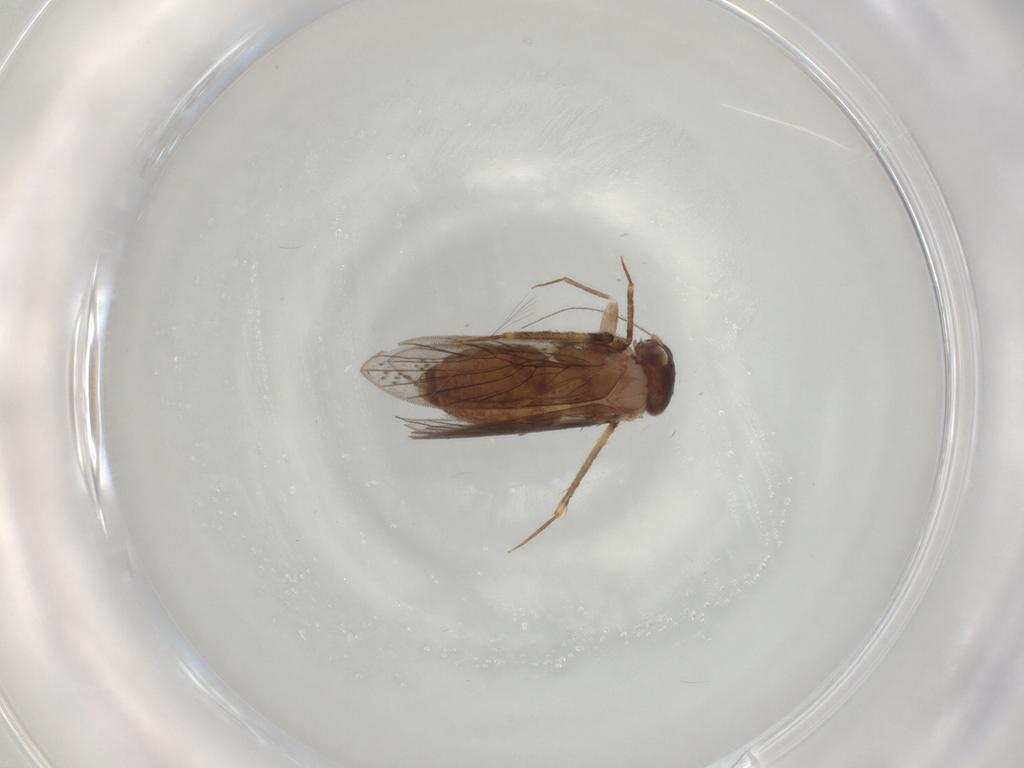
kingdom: Animalia
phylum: Arthropoda
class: Insecta
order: Psocodea
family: Lepidopsocidae
